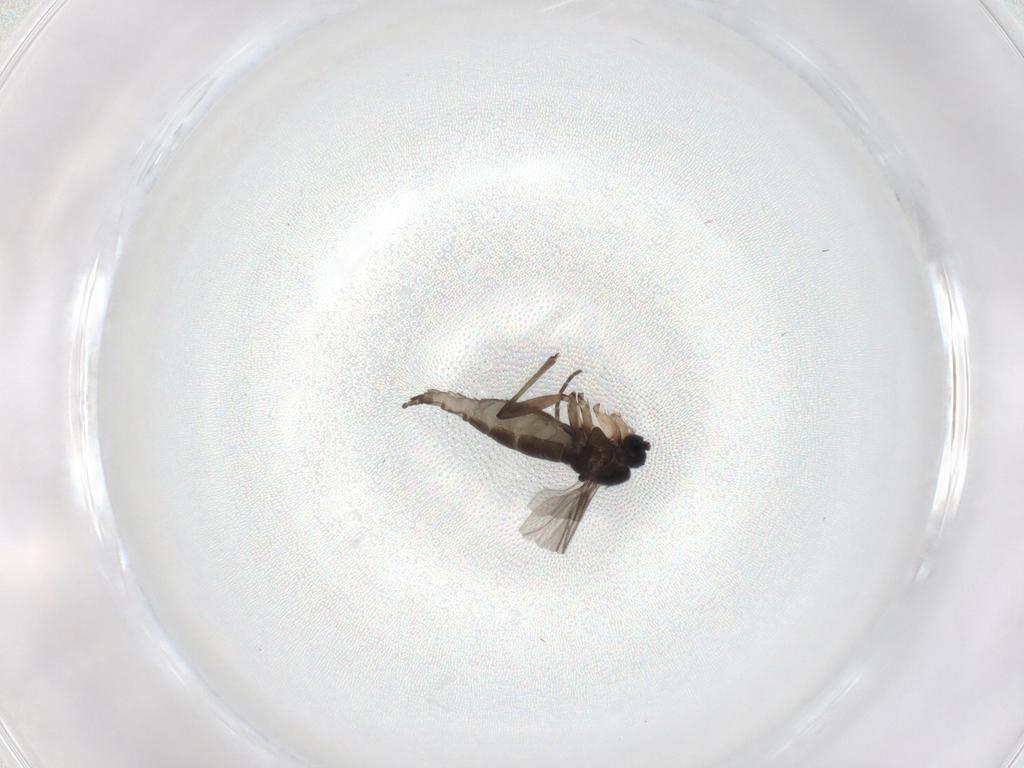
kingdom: Animalia
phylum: Arthropoda
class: Insecta
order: Diptera
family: Sciaridae
